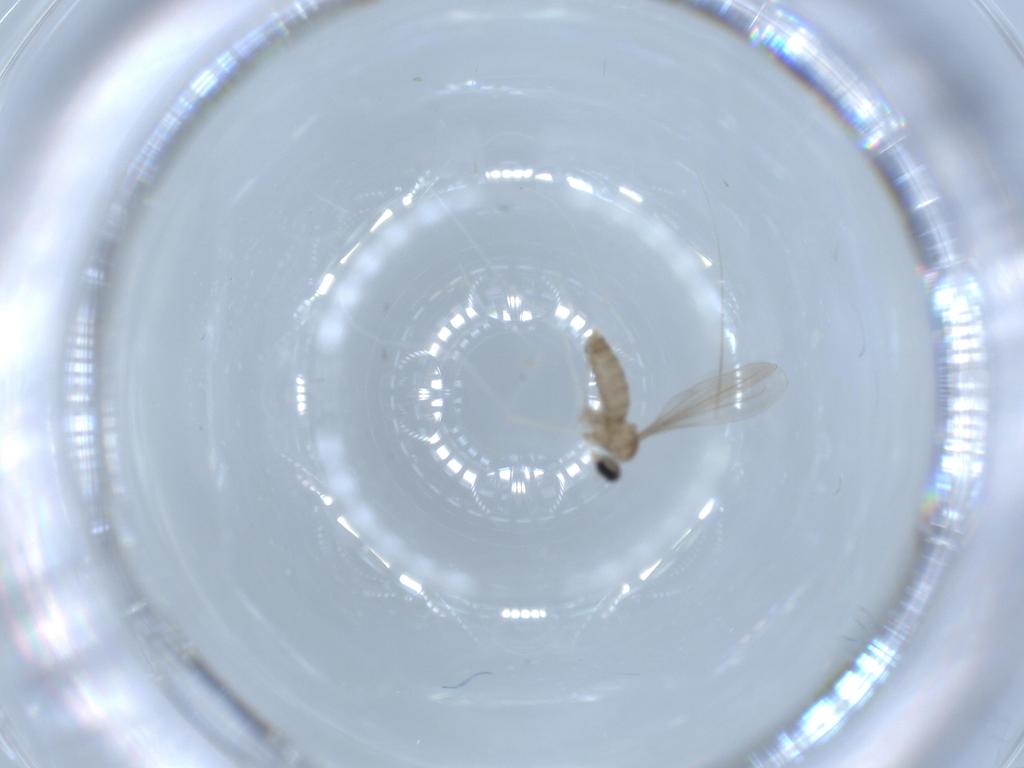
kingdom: Animalia
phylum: Arthropoda
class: Insecta
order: Diptera
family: Cecidomyiidae
